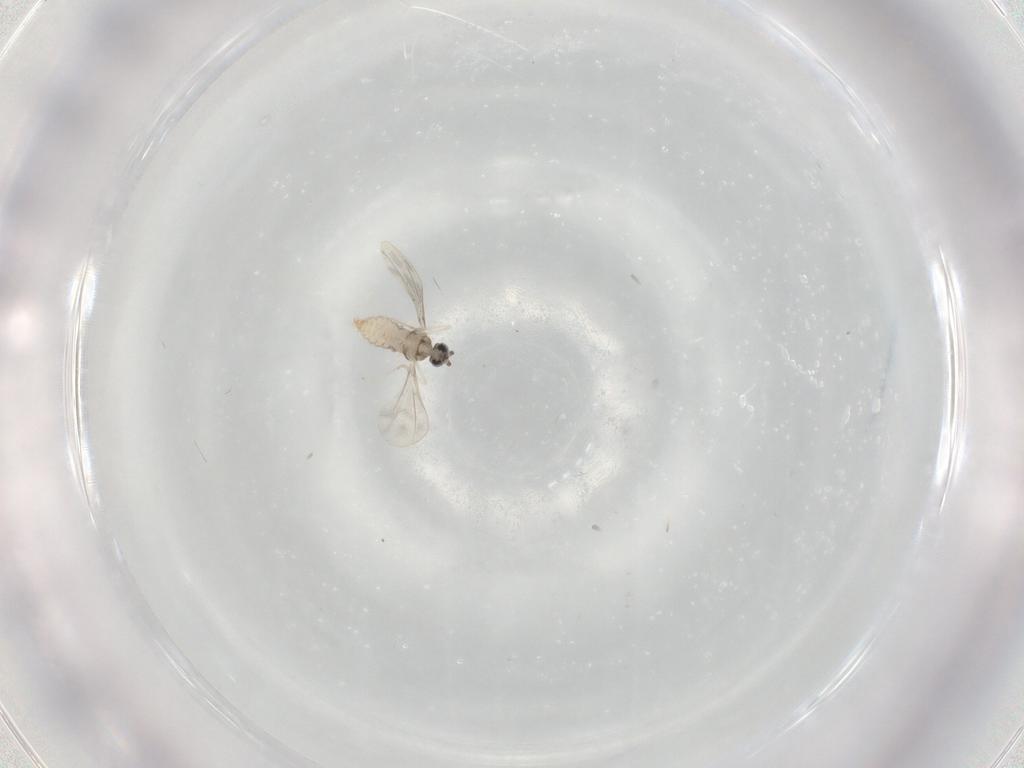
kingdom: Animalia
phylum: Arthropoda
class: Insecta
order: Diptera
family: Cecidomyiidae
